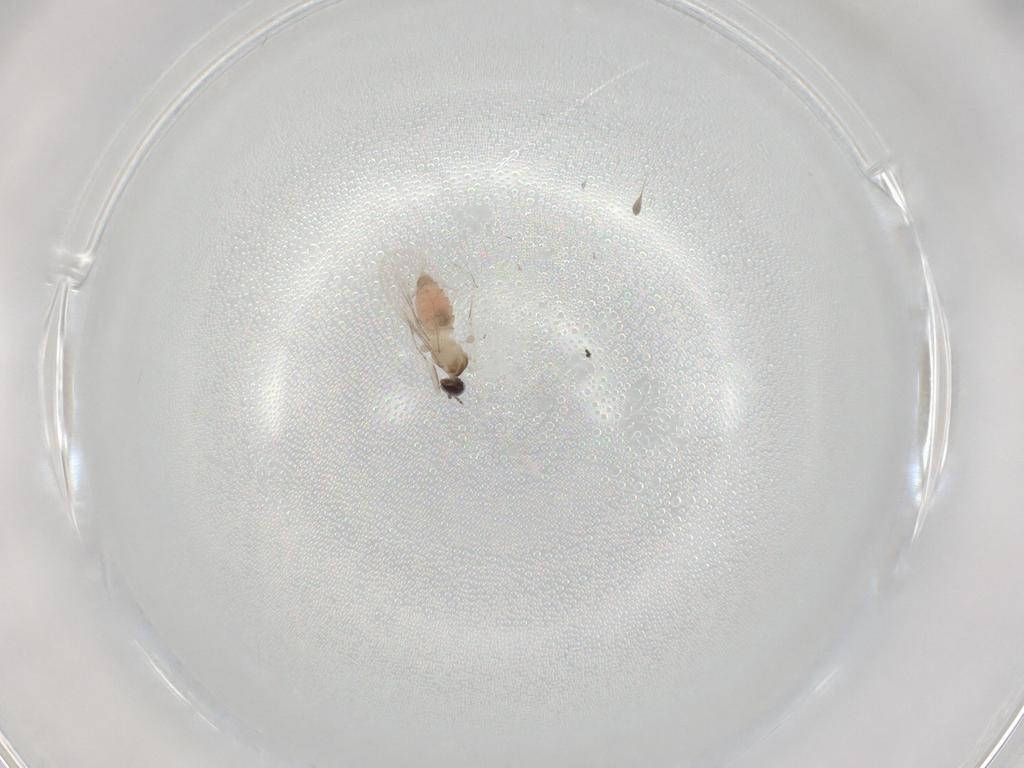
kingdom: Animalia
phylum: Arthropoda
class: Insecta
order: Diptera
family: Cecidomyiidae
